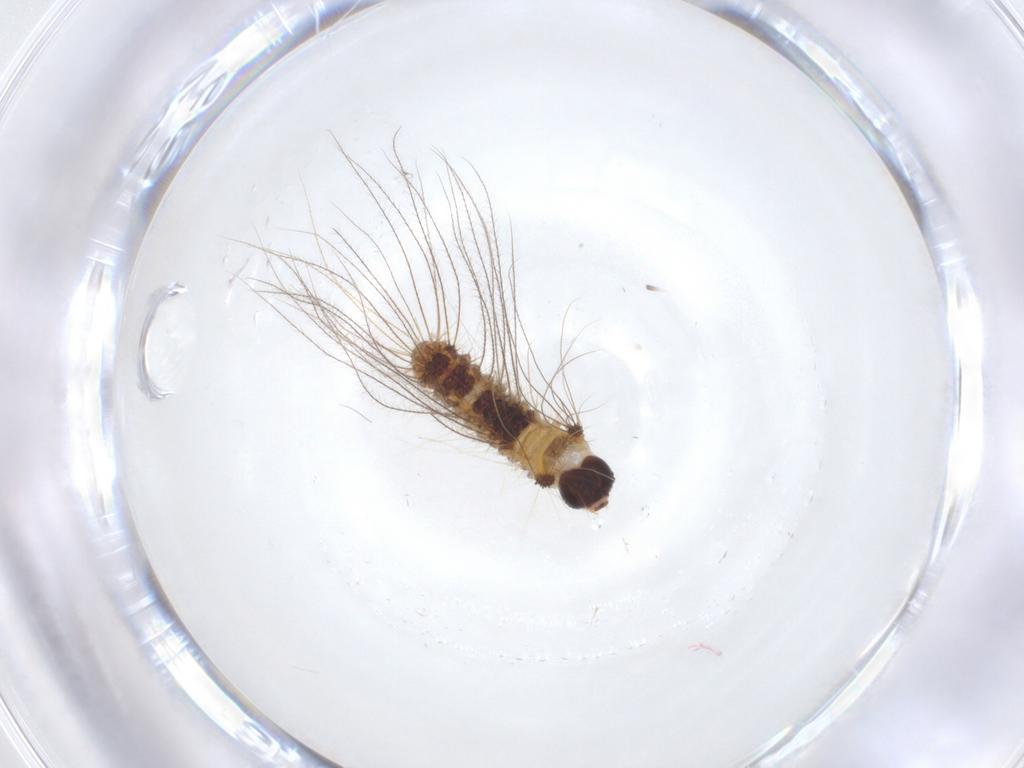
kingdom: Animalia
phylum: Arthropoda
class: Insecta
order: Lepidoptera
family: Erebidae
